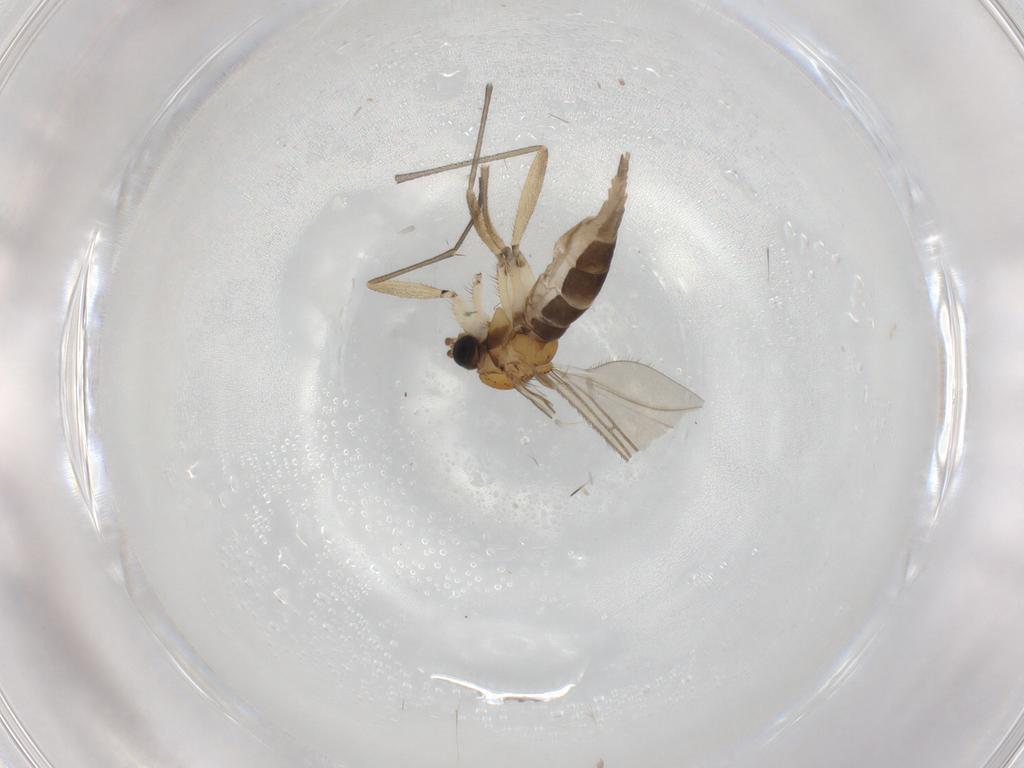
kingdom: Animalia
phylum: Arthropoda
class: Insecta
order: Diptera
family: Sciaridae
